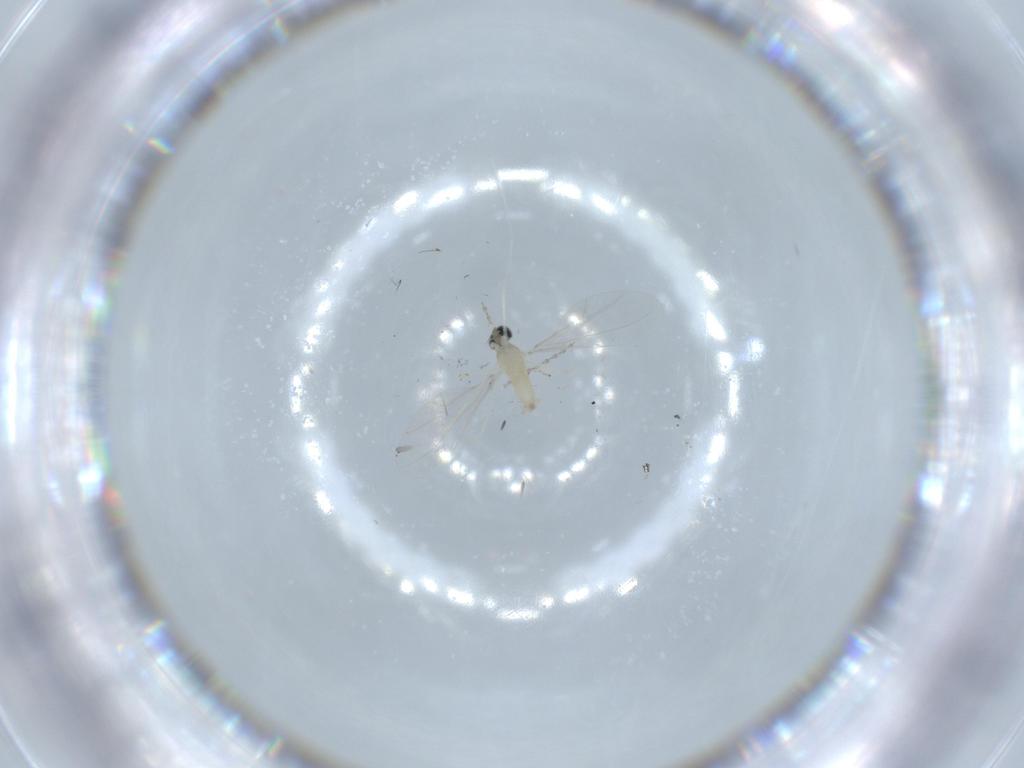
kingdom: Animalia
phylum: Arthropoda
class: Insecta
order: Diptera
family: Cecidomyiidae
